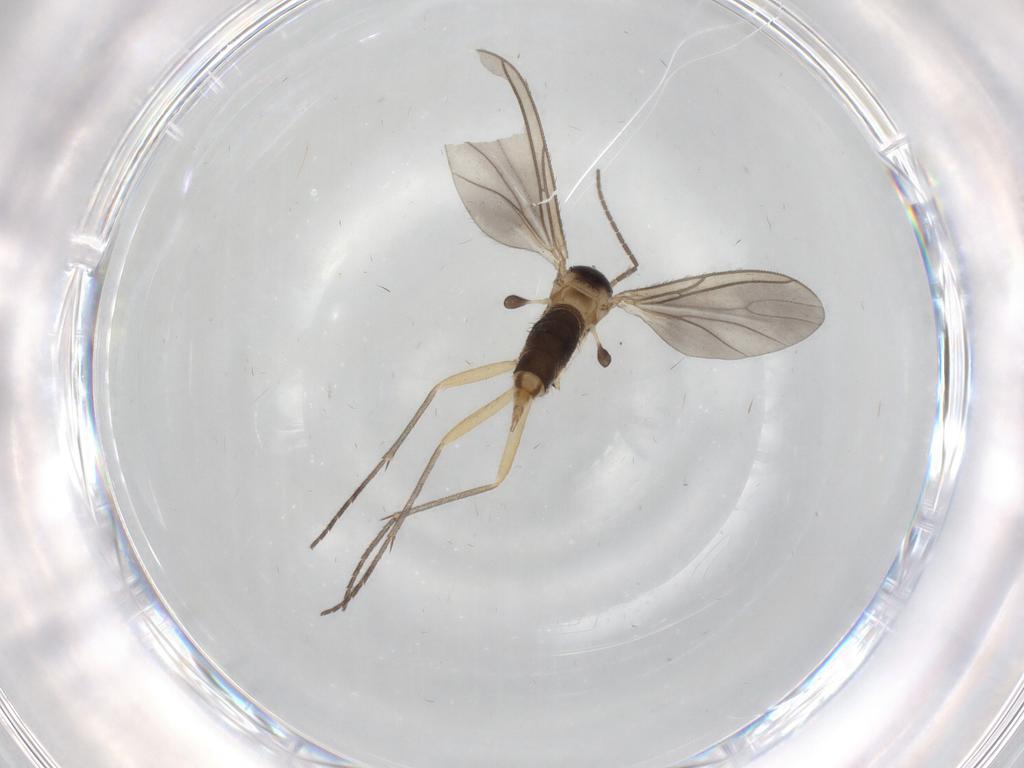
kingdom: Animalia
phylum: Arthropoda
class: Insecta
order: Diptera
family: Sciaridae
